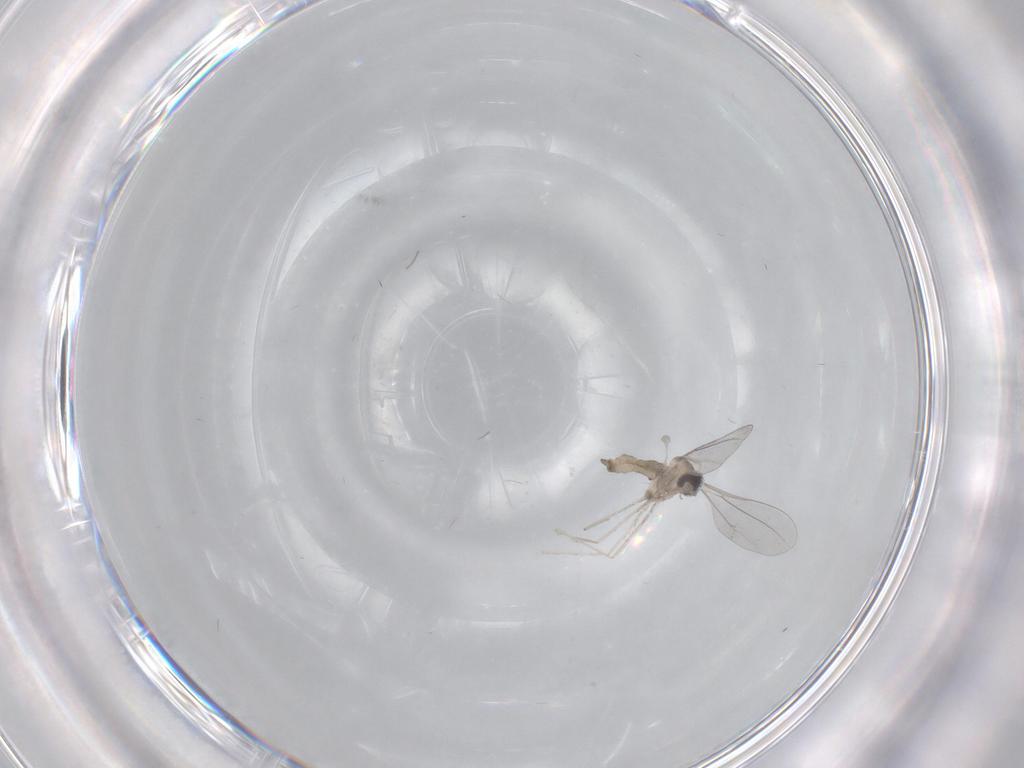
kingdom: Animalia
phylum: Arthropoda
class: Insecta
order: Diptera
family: Cecidomyiidae
